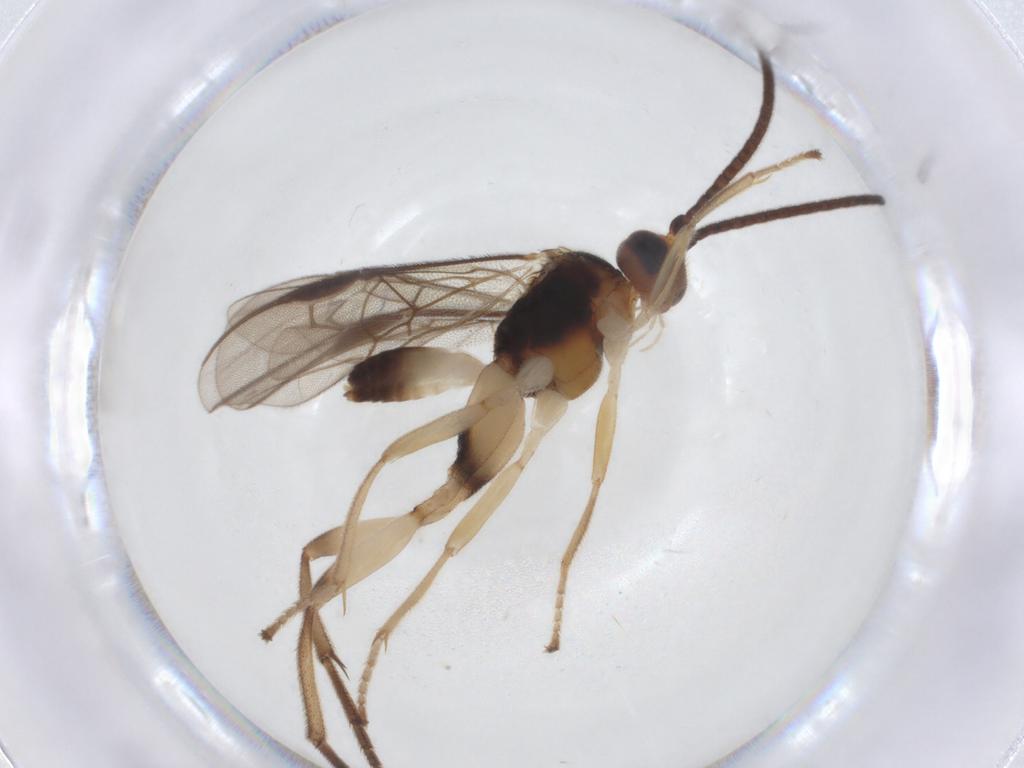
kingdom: Animalia
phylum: Arthropoda
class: Insecta
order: Hymenoptera
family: Braconidae
